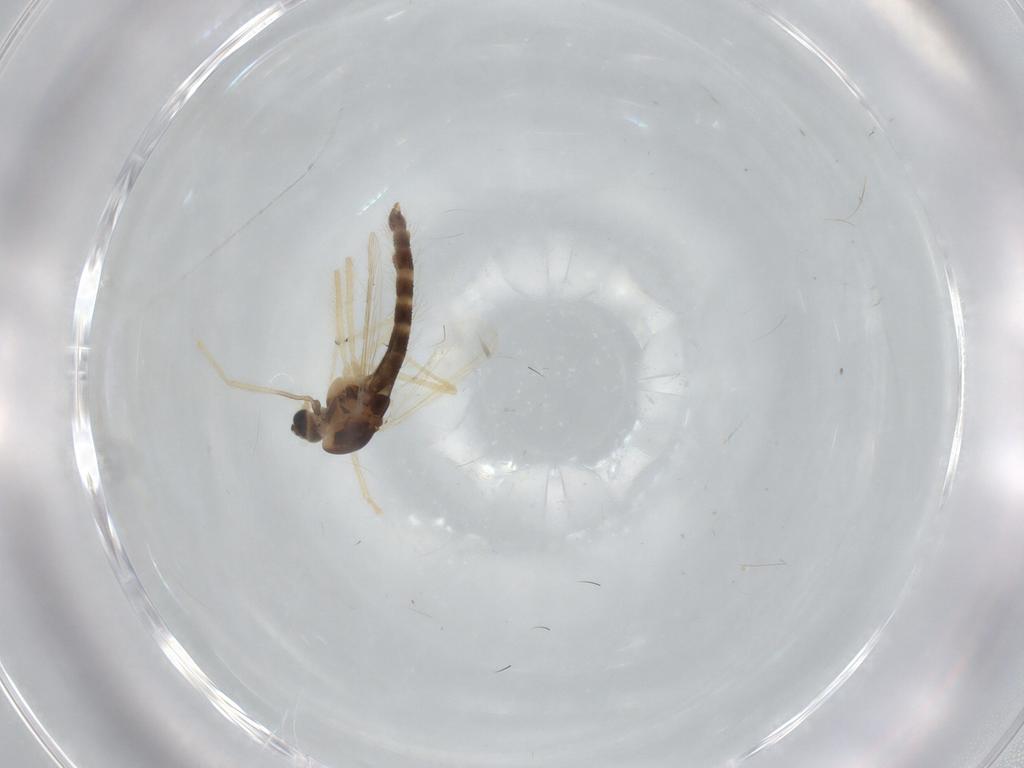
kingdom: Animalia
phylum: Arthropoda
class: Insecta
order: Diptera
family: Chironomidae
